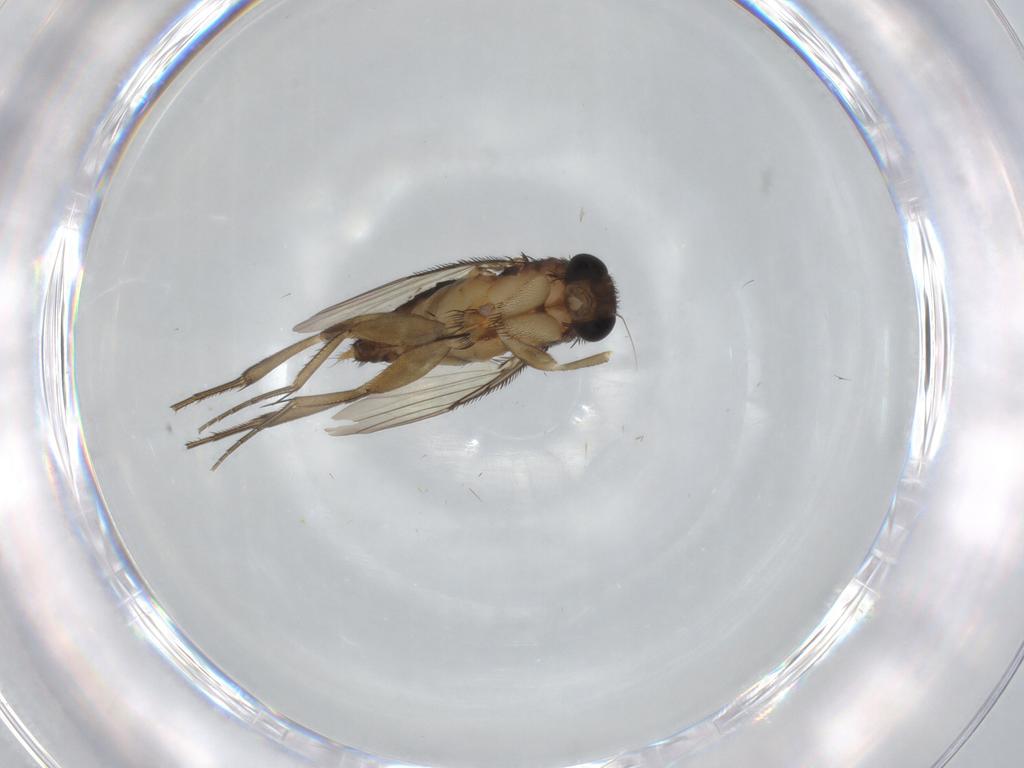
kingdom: Animalia
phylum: Arthropoda
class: Insecta
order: Diptera
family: Phoridae
